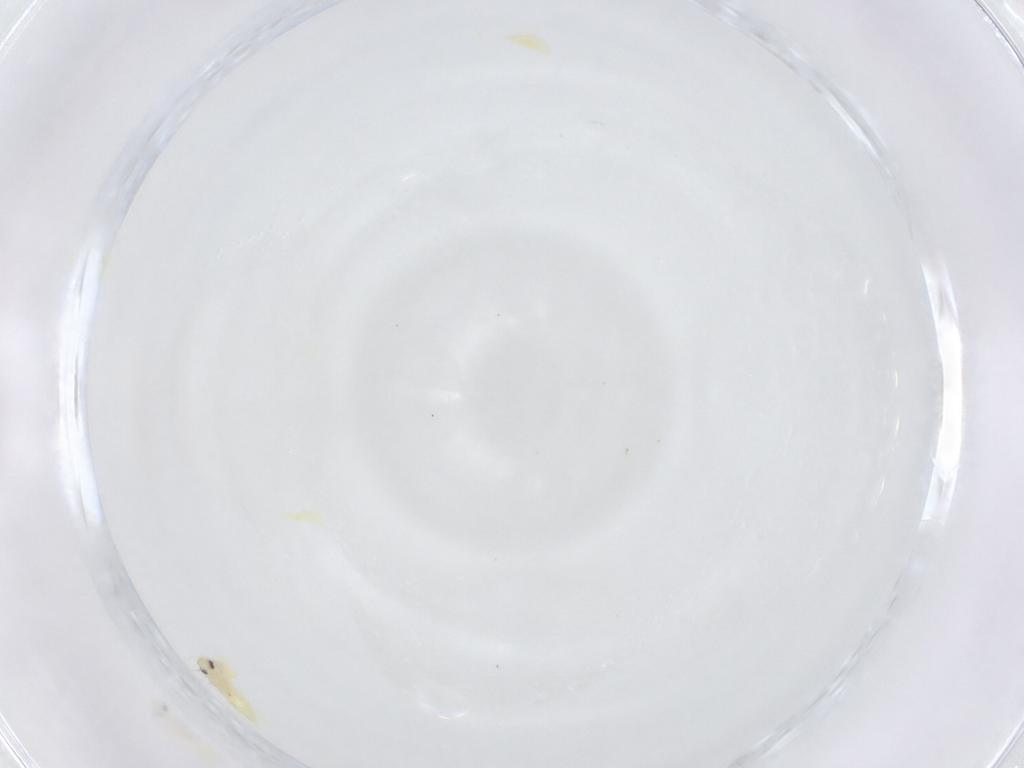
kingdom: Animalia
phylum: Arthropoda
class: Insecta
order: Hemiptera
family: Aleyrodidae
